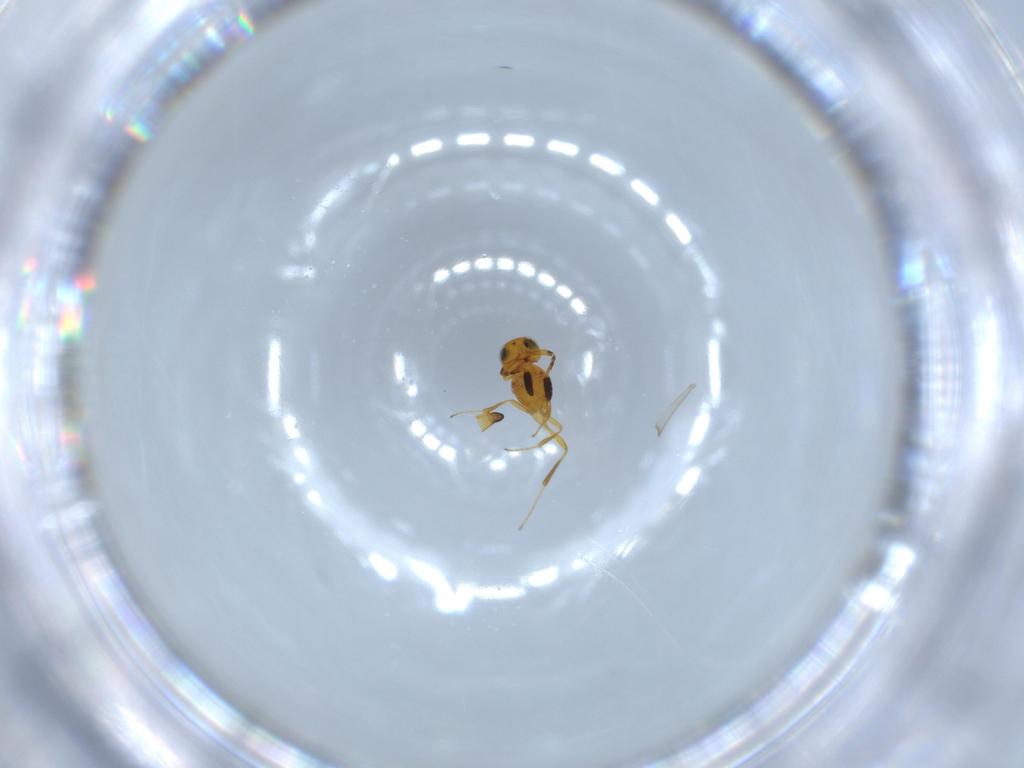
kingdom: Animalia
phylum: Arthropoda
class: Insecta
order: Hymenoptera
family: Scelionidae
